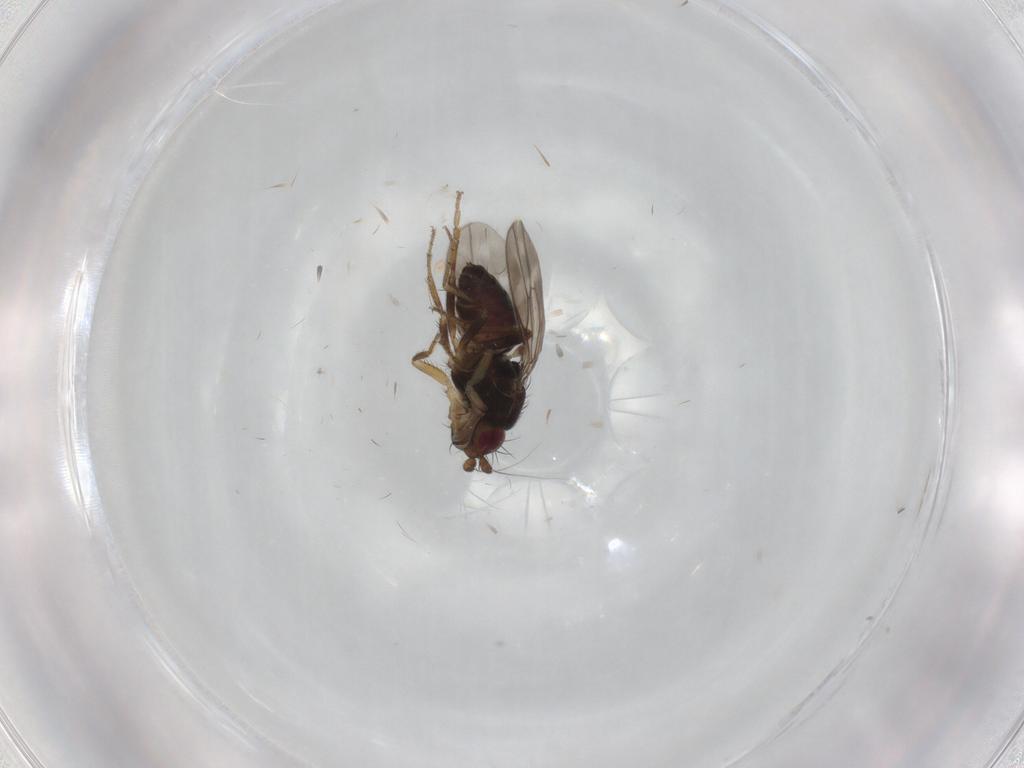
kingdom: Animalia
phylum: Arthropoda
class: Insecta
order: Diptera
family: Sphaeroceridae
